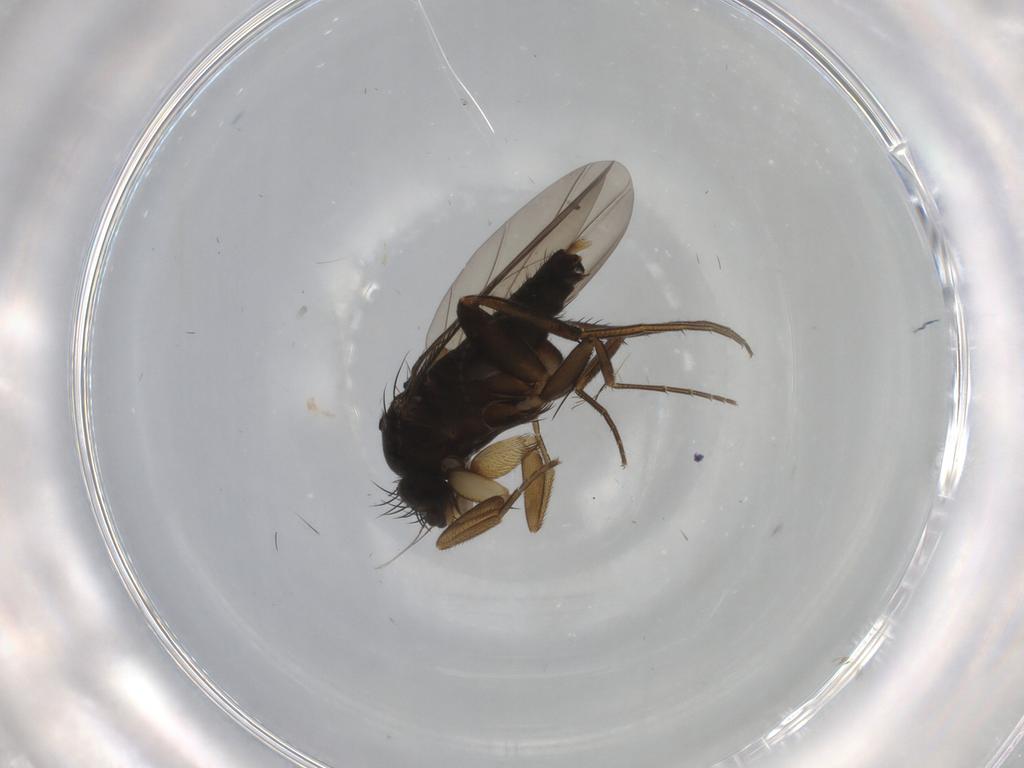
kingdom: Animalia
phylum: Arthropoda
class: Insecta
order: Diptera
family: Phoridae
